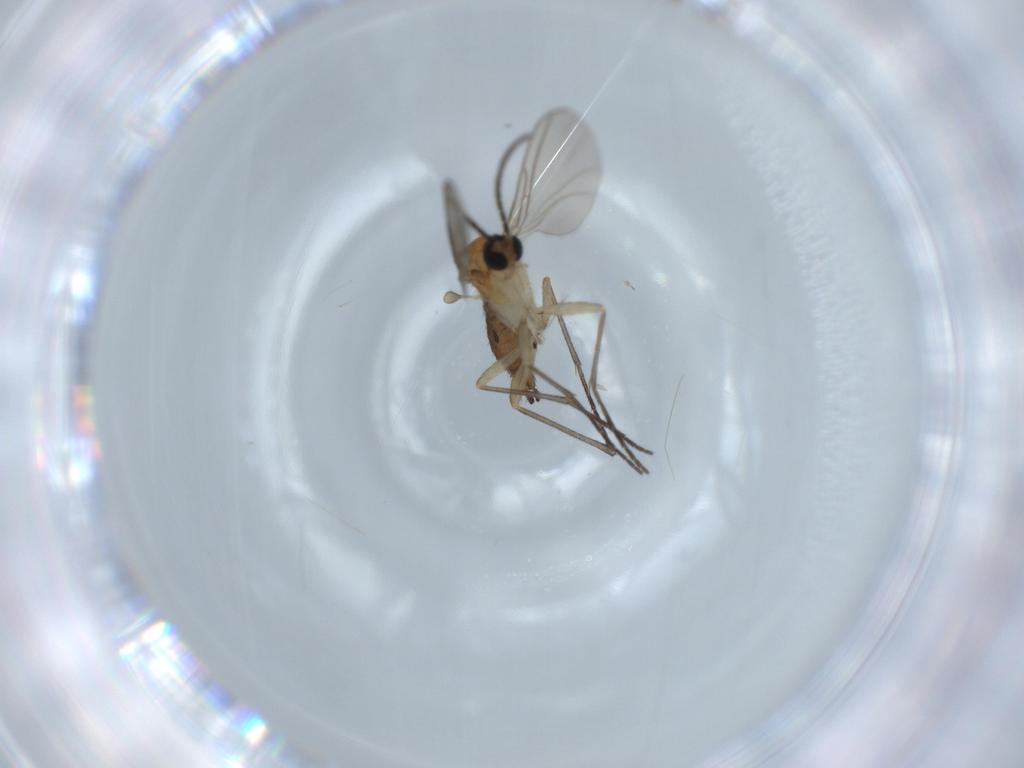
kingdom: Animalia
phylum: Arthropoda
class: Insecta
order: Diptera
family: Sciaridae
